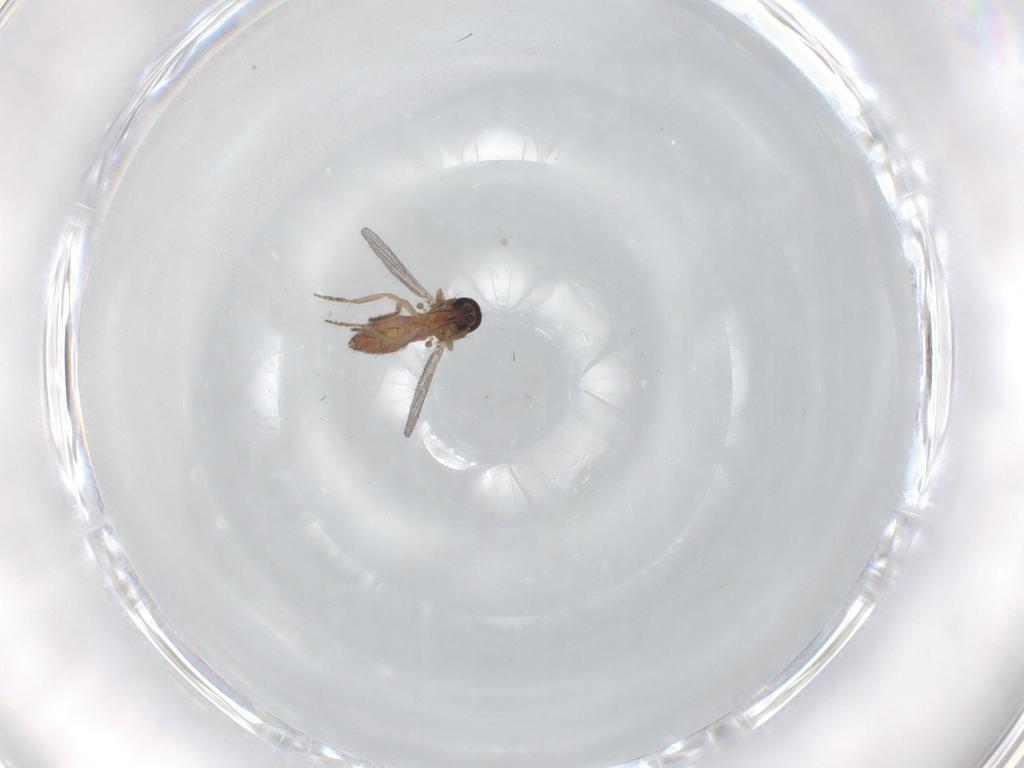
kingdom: Animalia
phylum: Arthropoda
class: Insecta
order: Diptera
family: Ceratopogonidae
